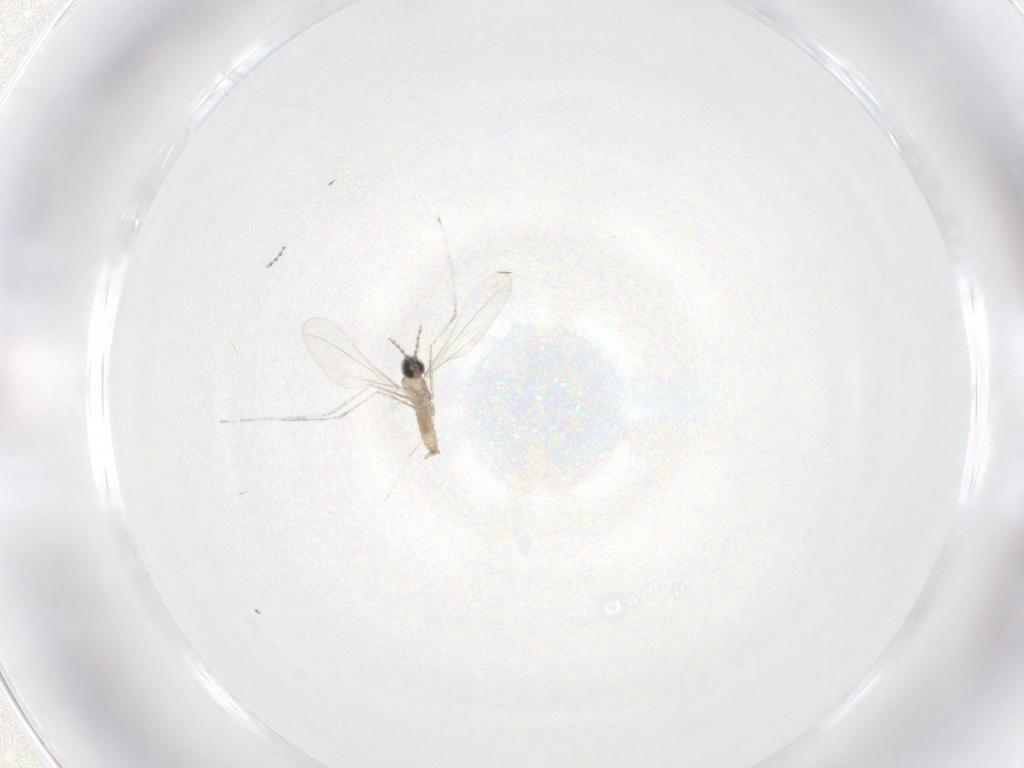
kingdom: Animalia
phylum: Arthropoda
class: Insecta
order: Diptera
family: Cecidomyiidae
